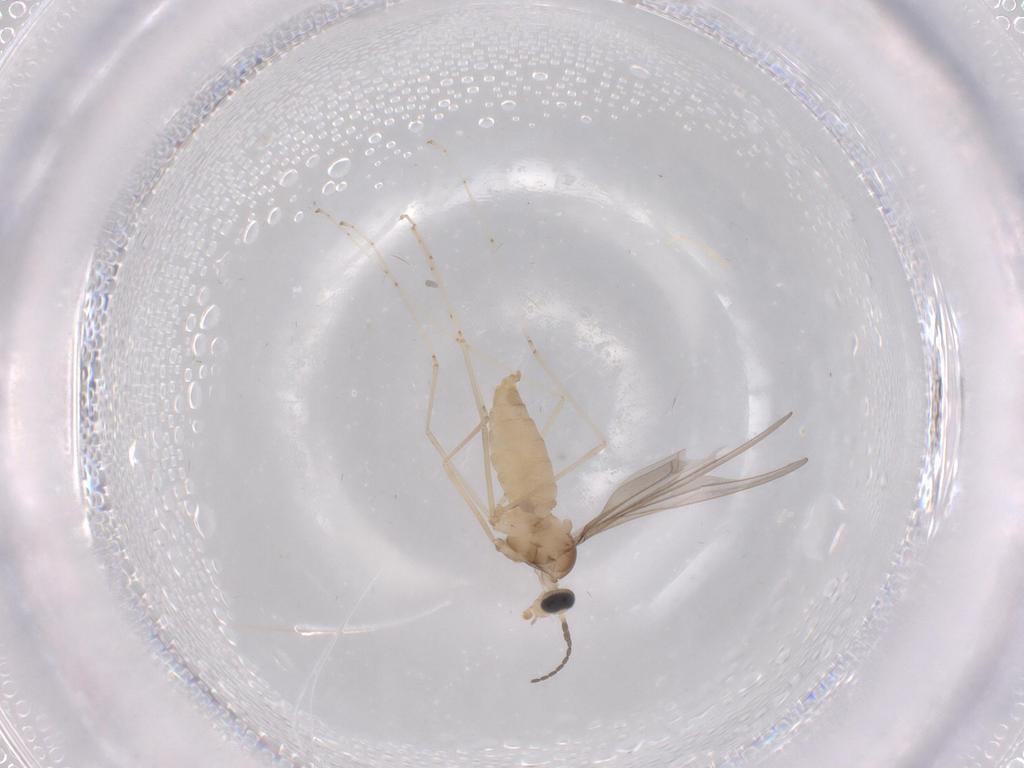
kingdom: Animalia
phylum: Arthropoda
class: Insecta
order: Diptera
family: Cecidomyiidae
